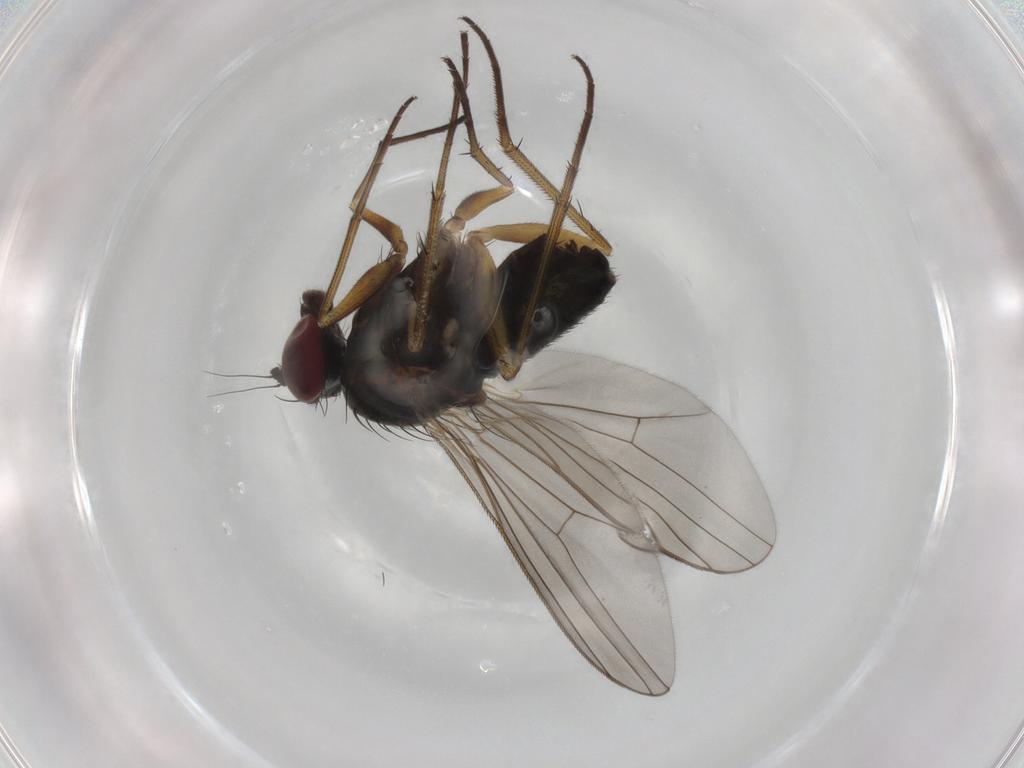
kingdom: Animalia
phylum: Arthropoda
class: Insecta
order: Diptera
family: Dolichopodidae
